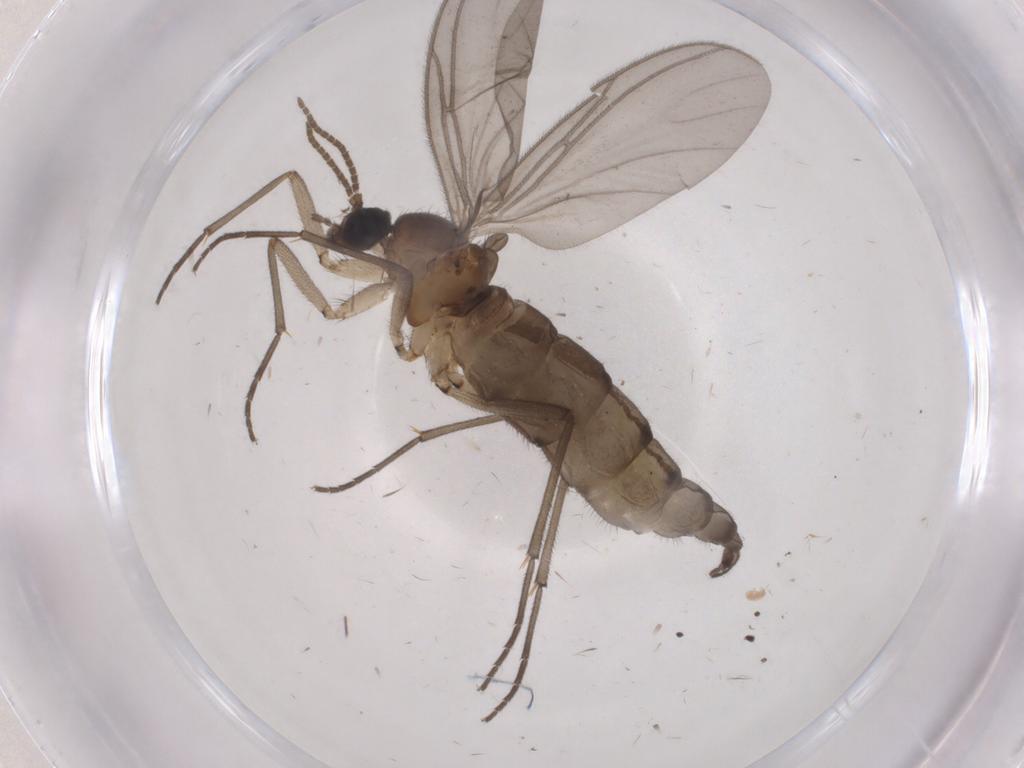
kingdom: Animalia
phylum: Arthropoda
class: Insecta
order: Diptera
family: Cecidomyiidae
